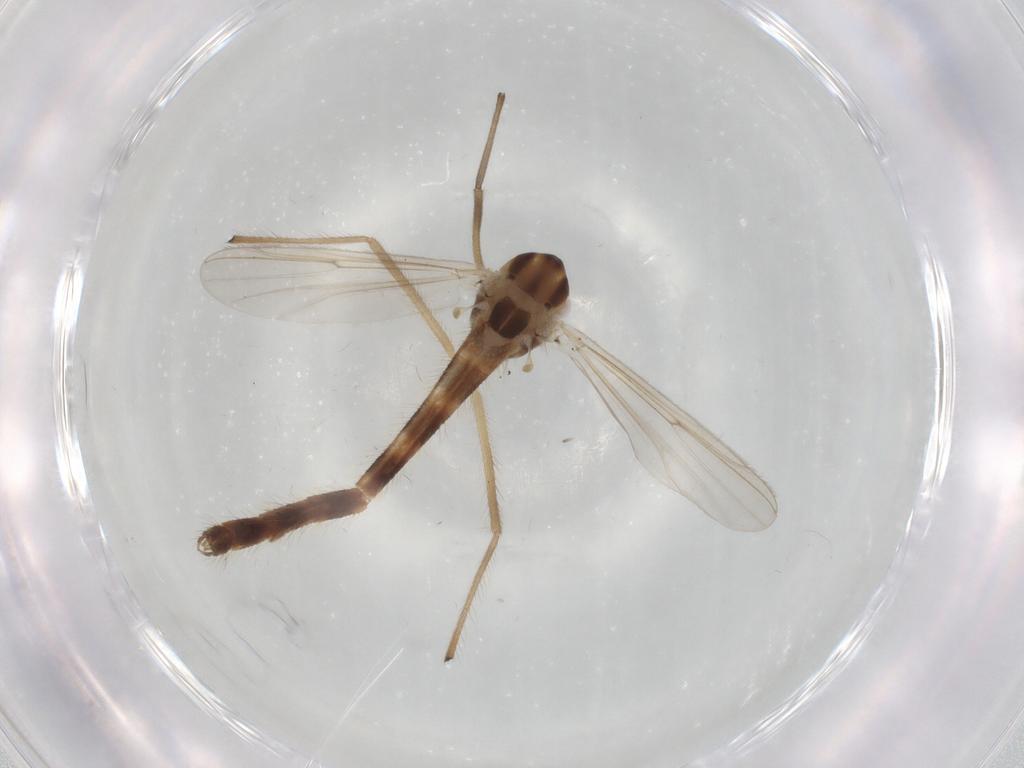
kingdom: Animalia
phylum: Arthropoda
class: Insecta
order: Diptera
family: Chironomidae
